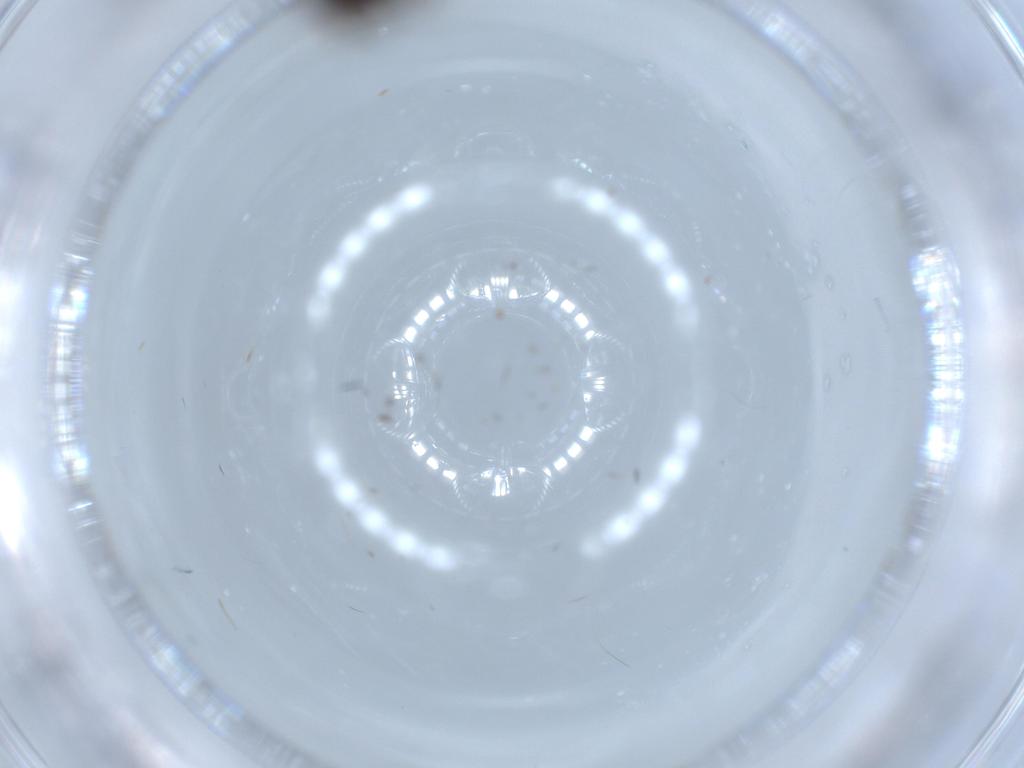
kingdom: Animalia
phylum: Arthropoda
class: Insecta
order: Hymenoptera
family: Platygastridae
